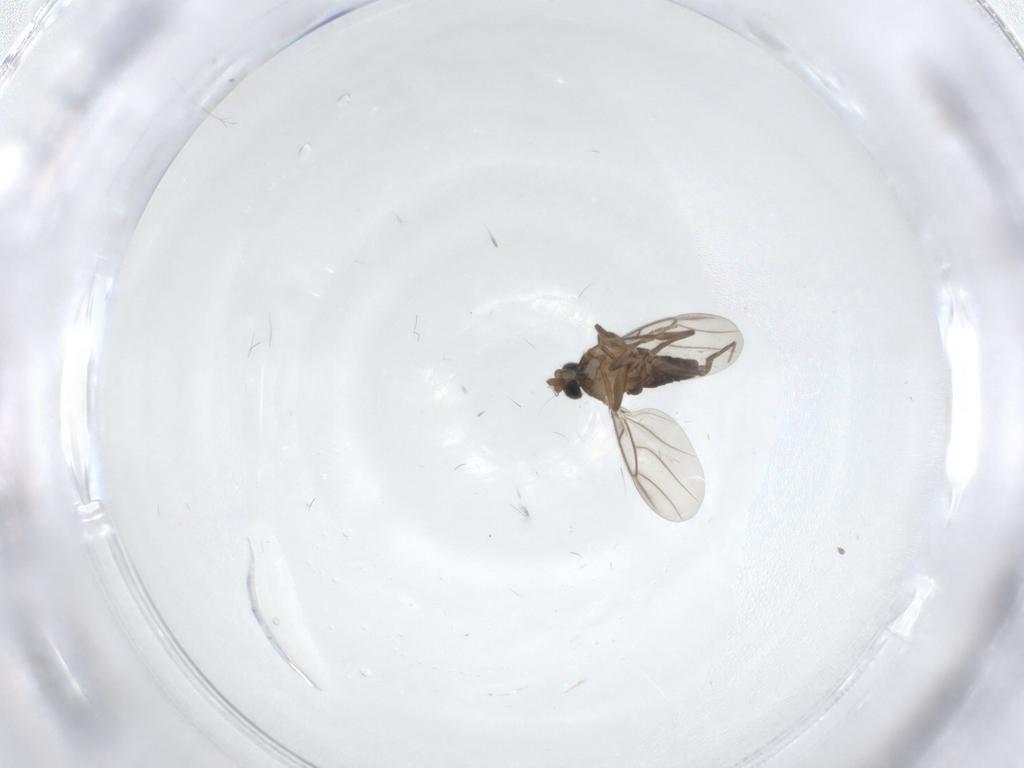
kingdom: Animalia
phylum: Arthropoda
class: Insecta
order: Diptera
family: Phoridae
